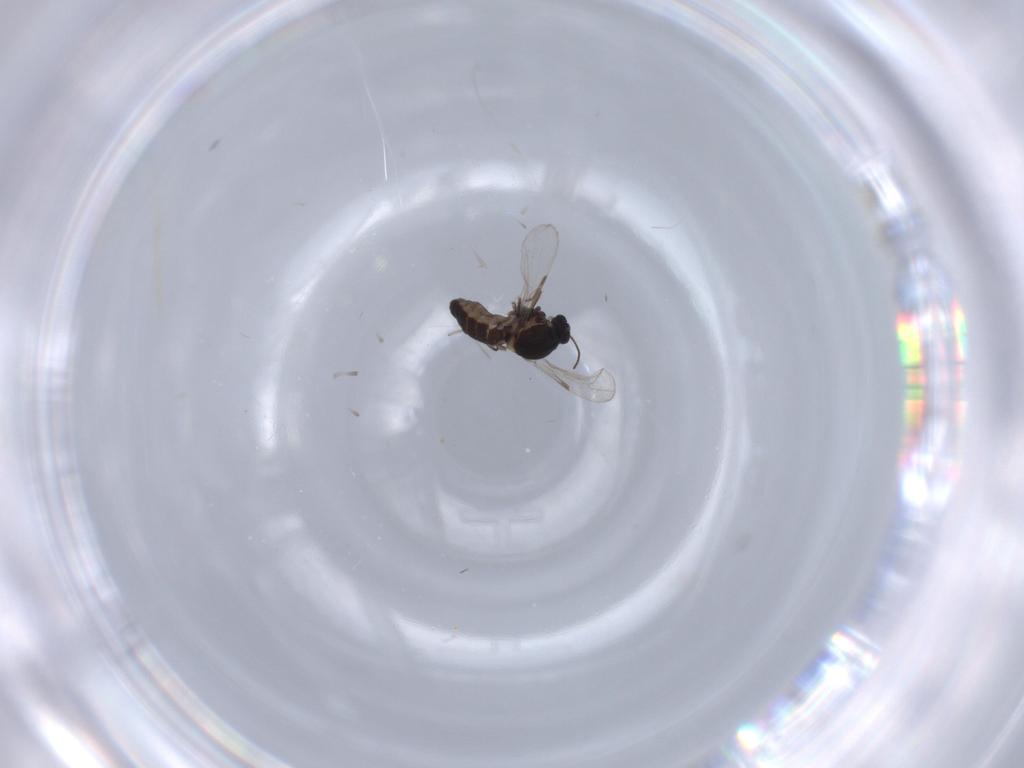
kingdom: Animalia
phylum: Arthropoda
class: Insecta
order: Diptera
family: Ceratopogonidae
